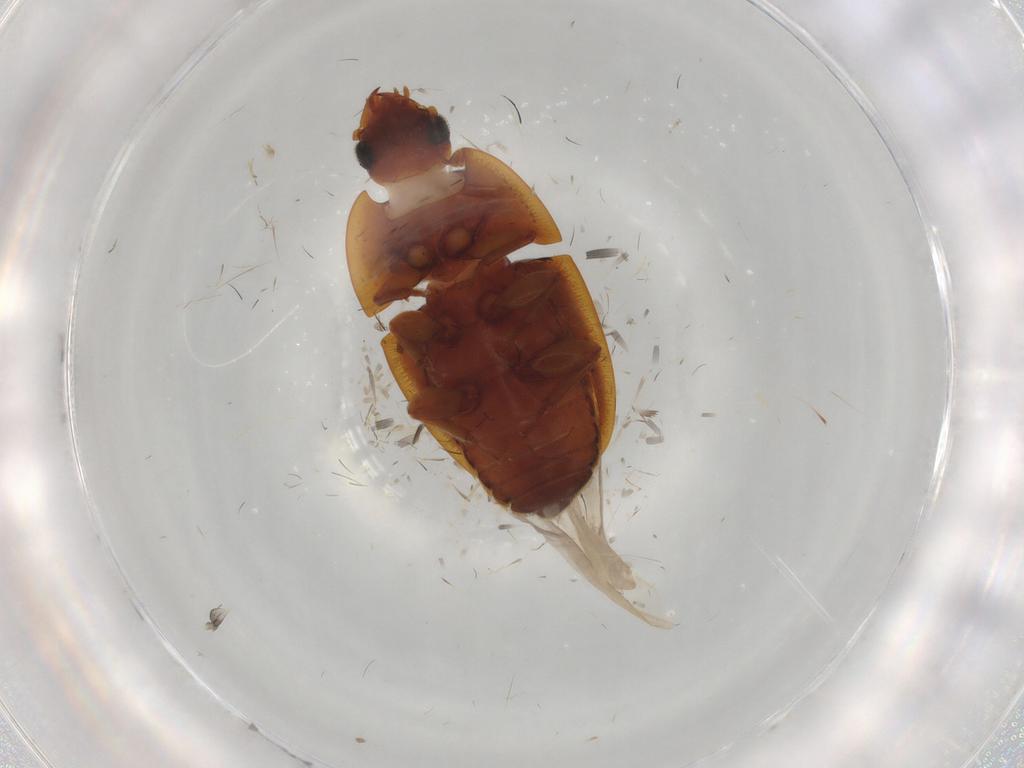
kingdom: Animalia
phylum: Arthropoda
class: Insecta
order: Coleoptera
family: Nitidulidae
